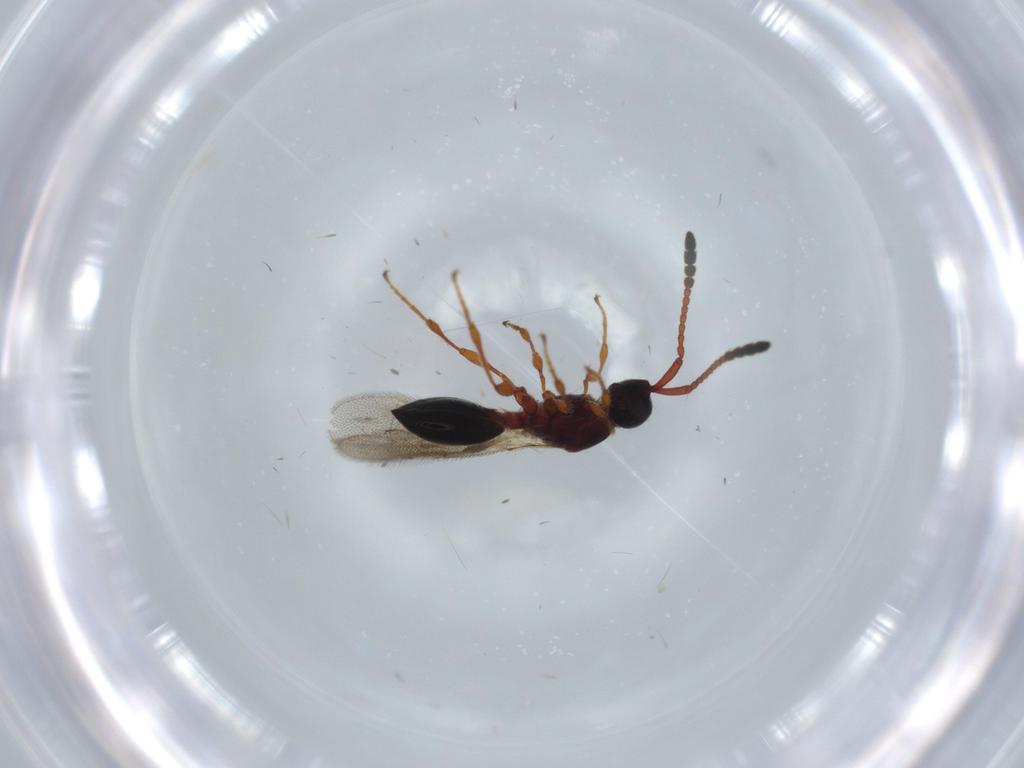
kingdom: Animalia
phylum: Arthropoda
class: Insecta
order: Hymenoptera
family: Diapriidae
